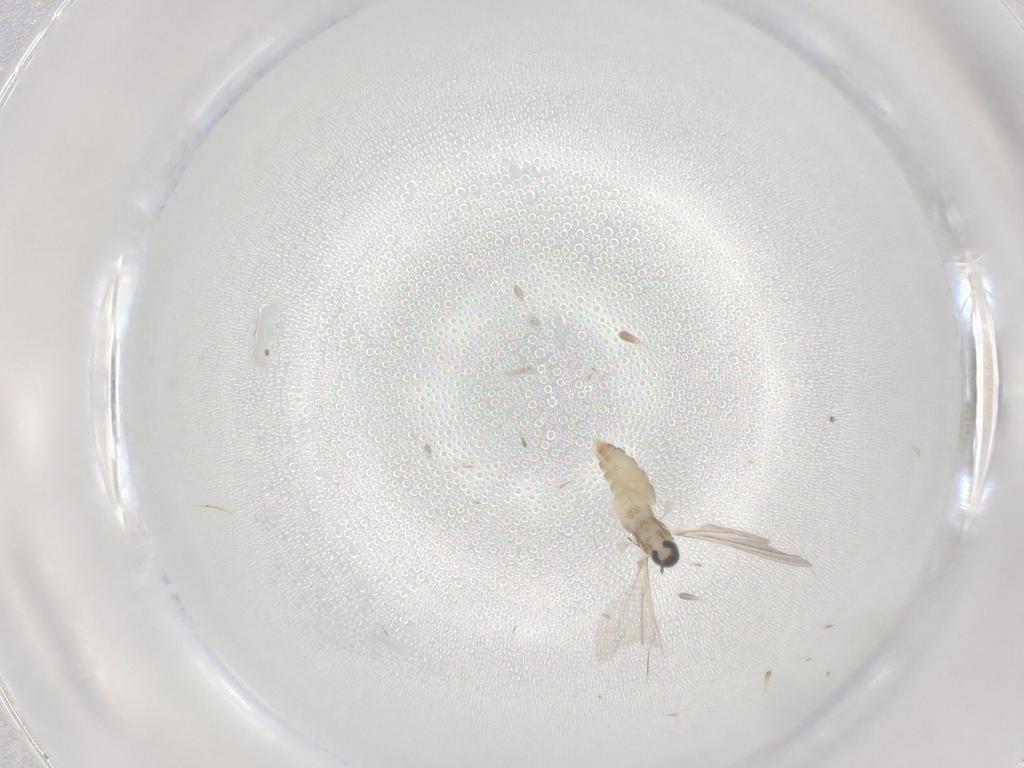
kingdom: Animalia
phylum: Arthropoda
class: Insecta
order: Diptera
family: Cecidomyiidae
